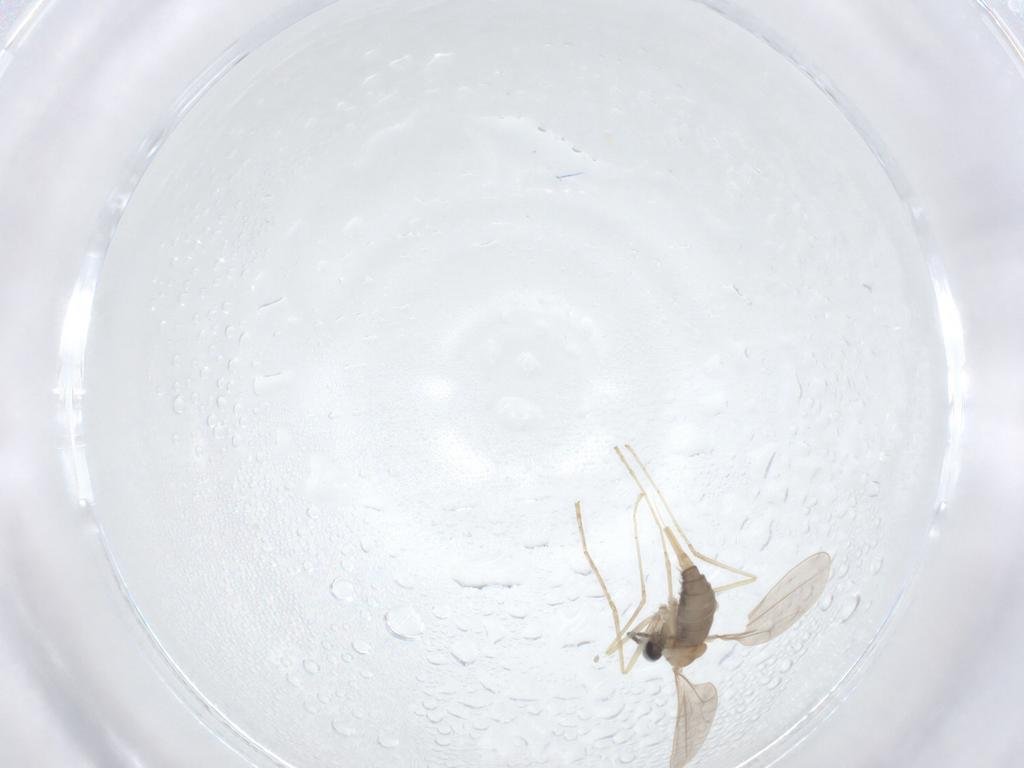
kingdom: Animalia
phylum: Arthropoda
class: Insecta
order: Diptera
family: Cecidomyiidae
